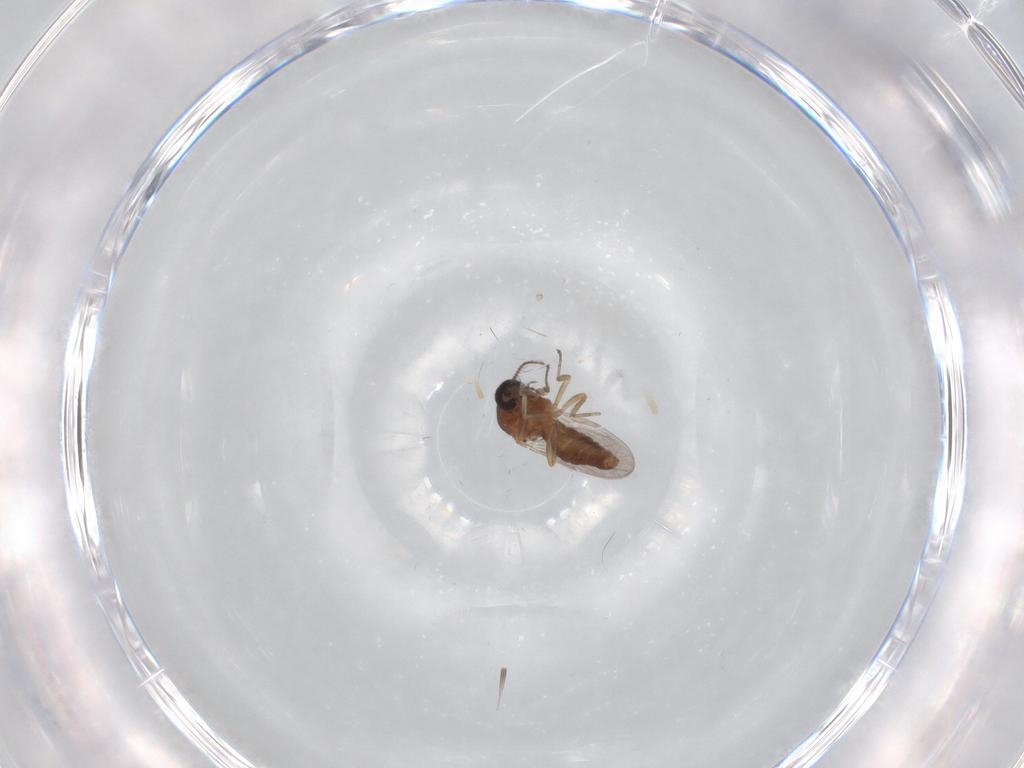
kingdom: Animalia
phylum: Arthropoda
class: Insecta
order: Diptera
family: Ceratopogonidae
